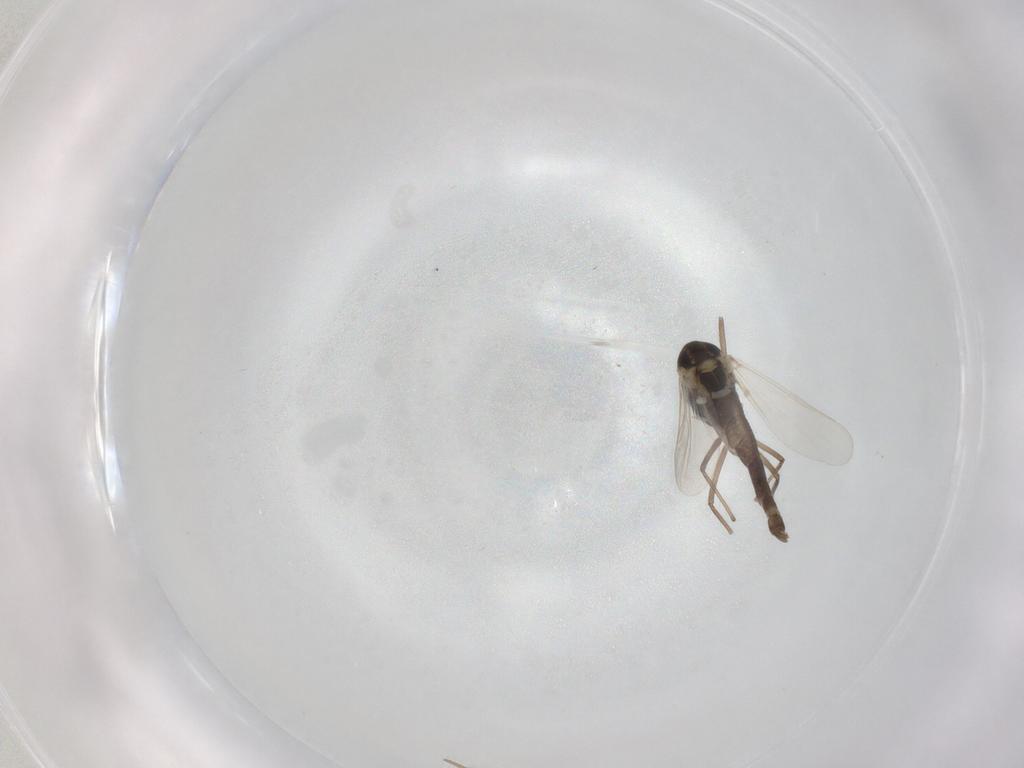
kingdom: Animalia
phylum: Arthropoda
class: Insecta
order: Diptera
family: Chironomidae
